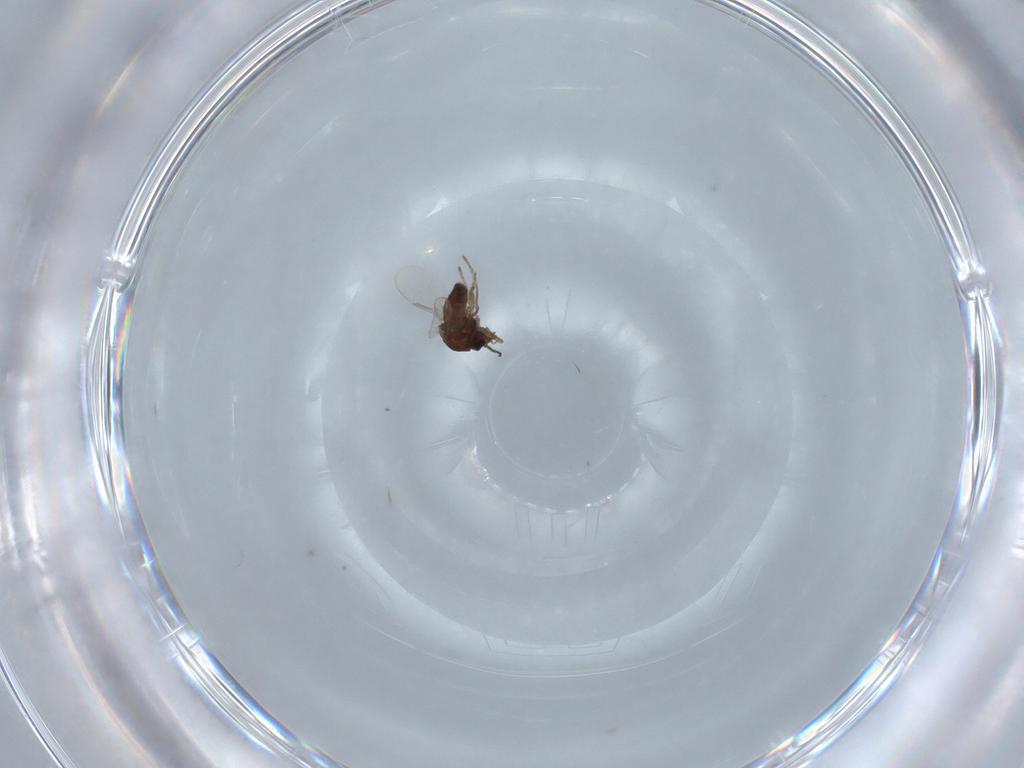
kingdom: Animalia
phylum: Arthropoda
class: Insecta
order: Diptera
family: Ceratopogonidae
